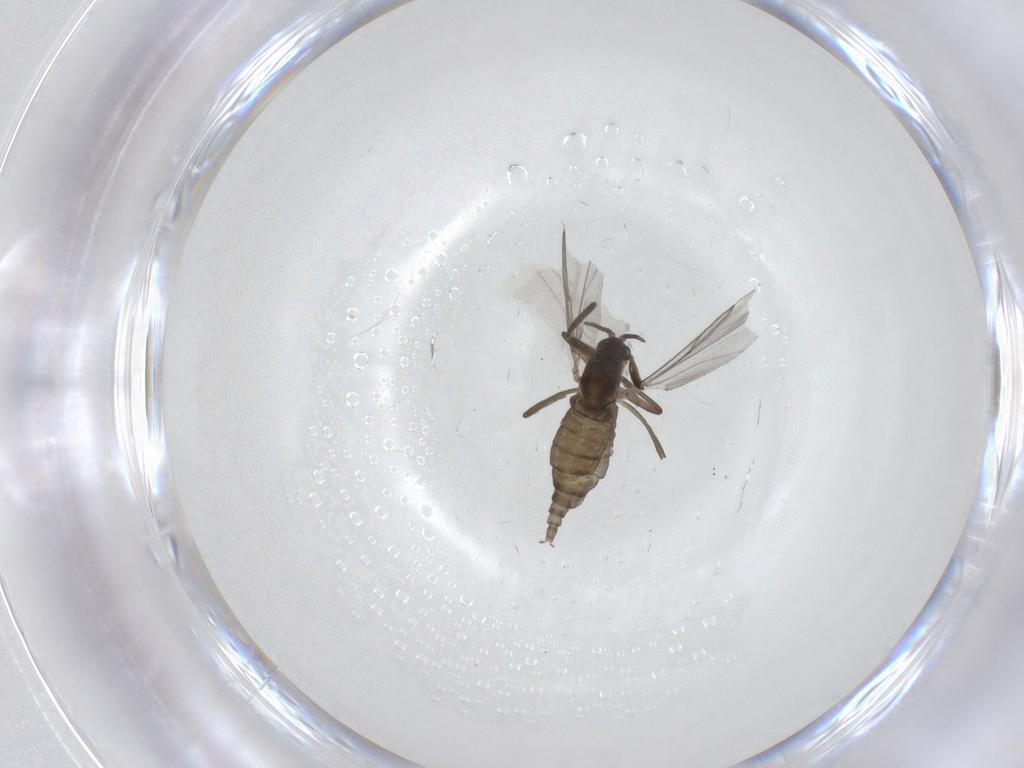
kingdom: Animalia
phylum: Arthropoda
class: Insecta
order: Diptera
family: Cecidomyiidae
